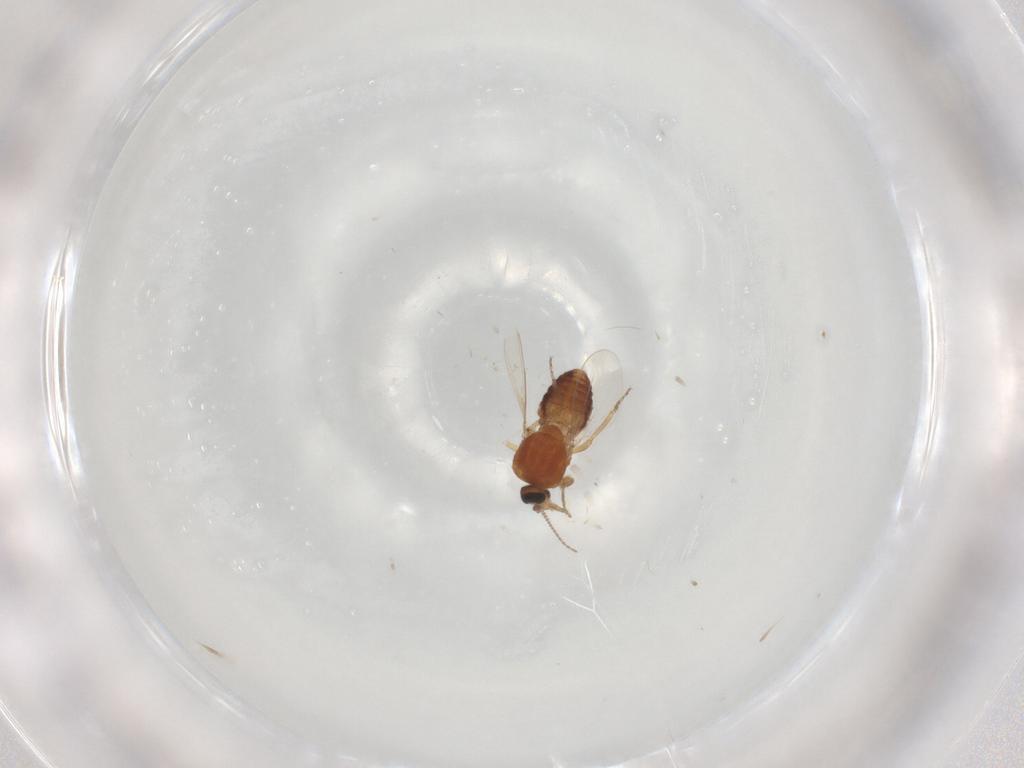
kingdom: Animalia
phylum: Arthropoda
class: Insecta
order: Diptera
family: Ceratopogonidae
